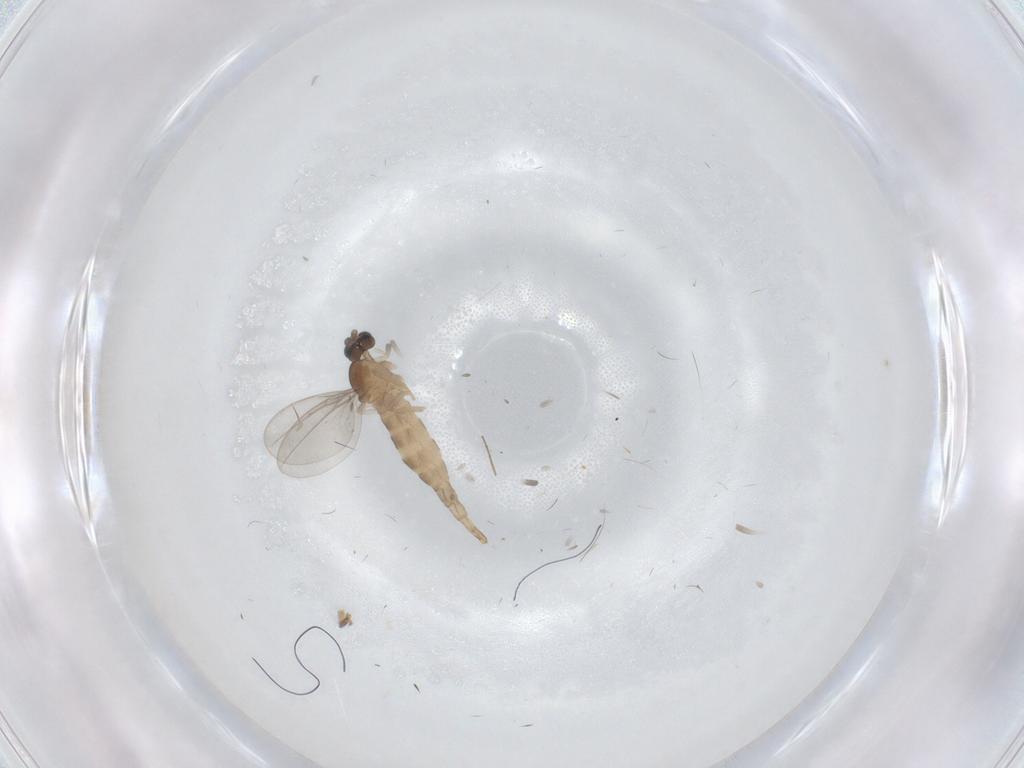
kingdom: Animalia
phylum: Arthropoda
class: Insecta
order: Diptera
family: Cecidomyiidae
